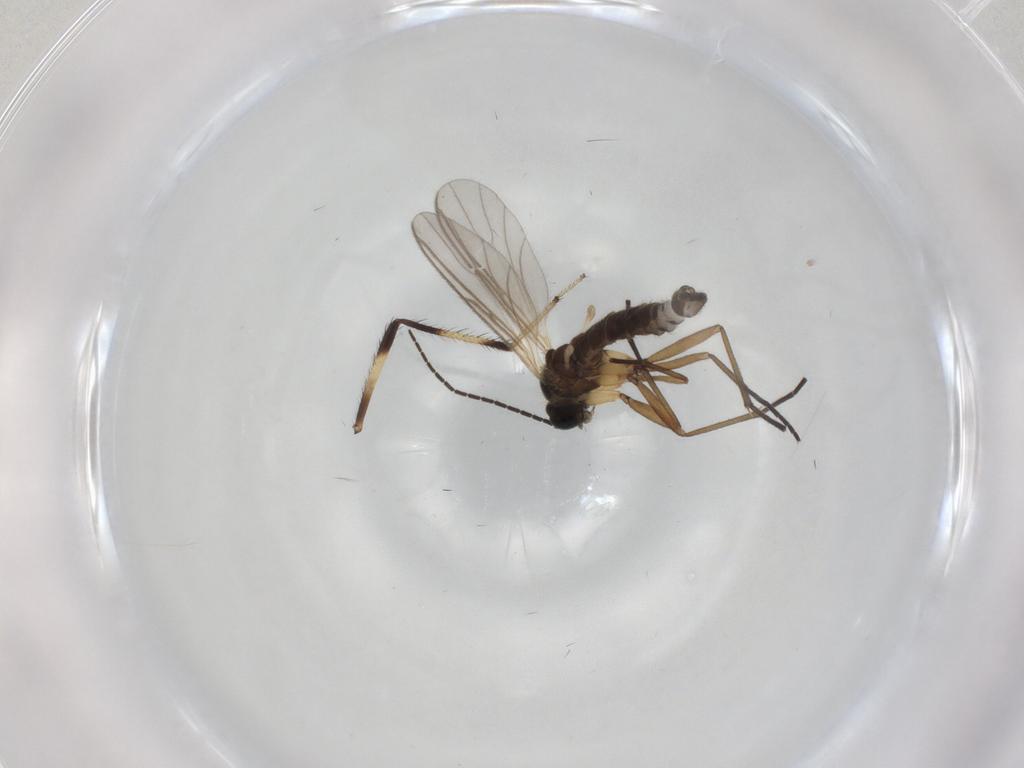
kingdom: Animalia
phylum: Arthropoda
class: Insecta
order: Diptera
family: Sciaridae
